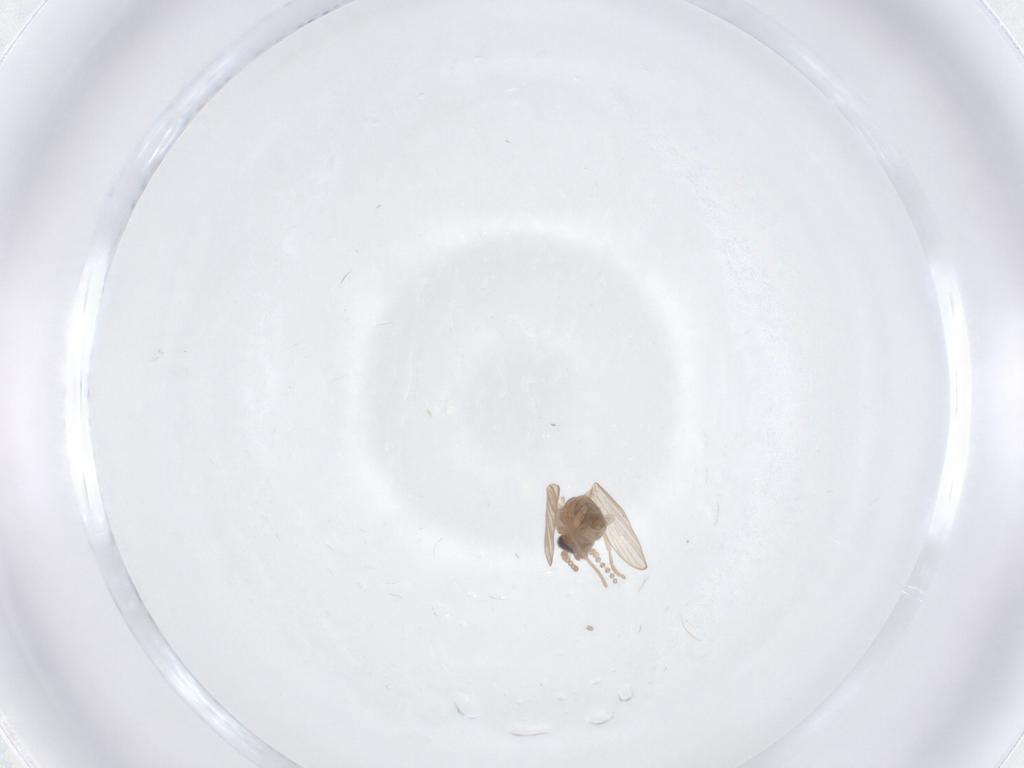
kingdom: Animalia
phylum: Arthropoda
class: Insecta
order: Diptera
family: Psychodidae
